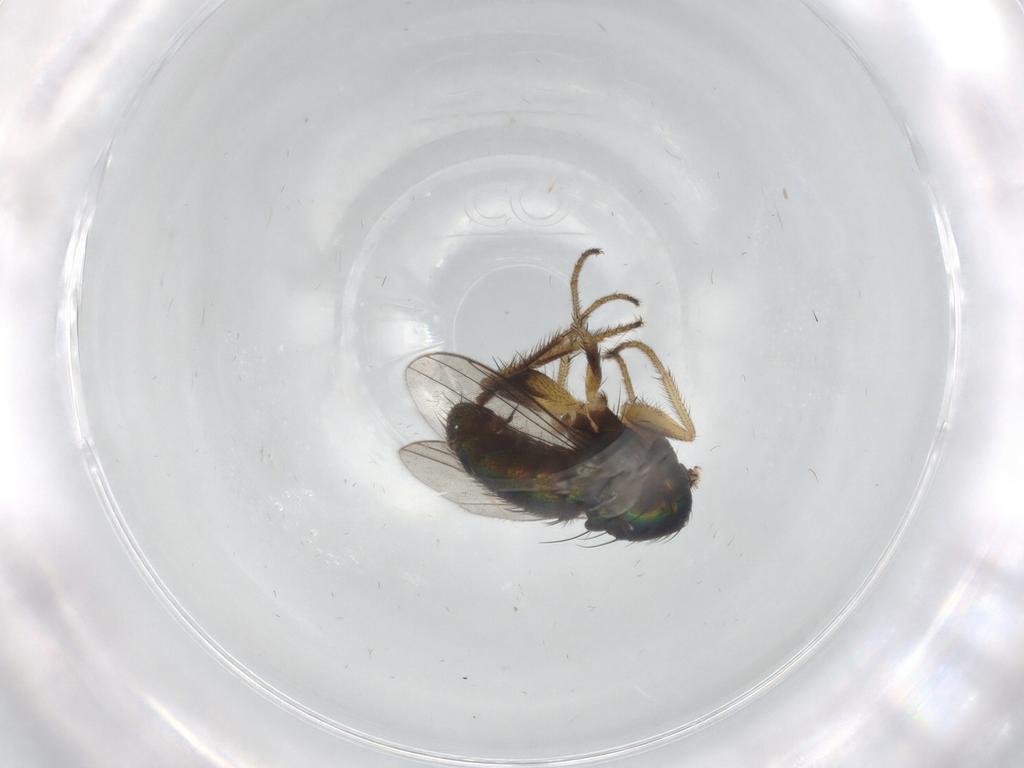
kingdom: Animalia
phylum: Arthropoda
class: Insecta
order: Diptera
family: Dolichopodidae
